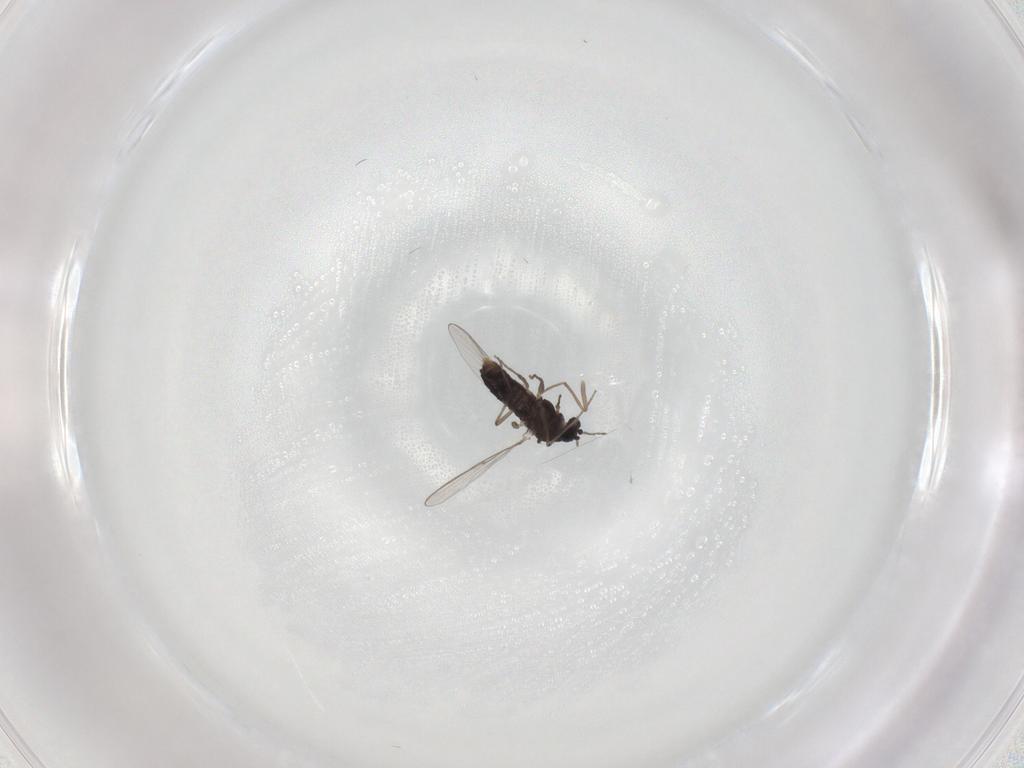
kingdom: Animalia
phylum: Arthropoda
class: Insecta
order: Diptera
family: Chironomidae
